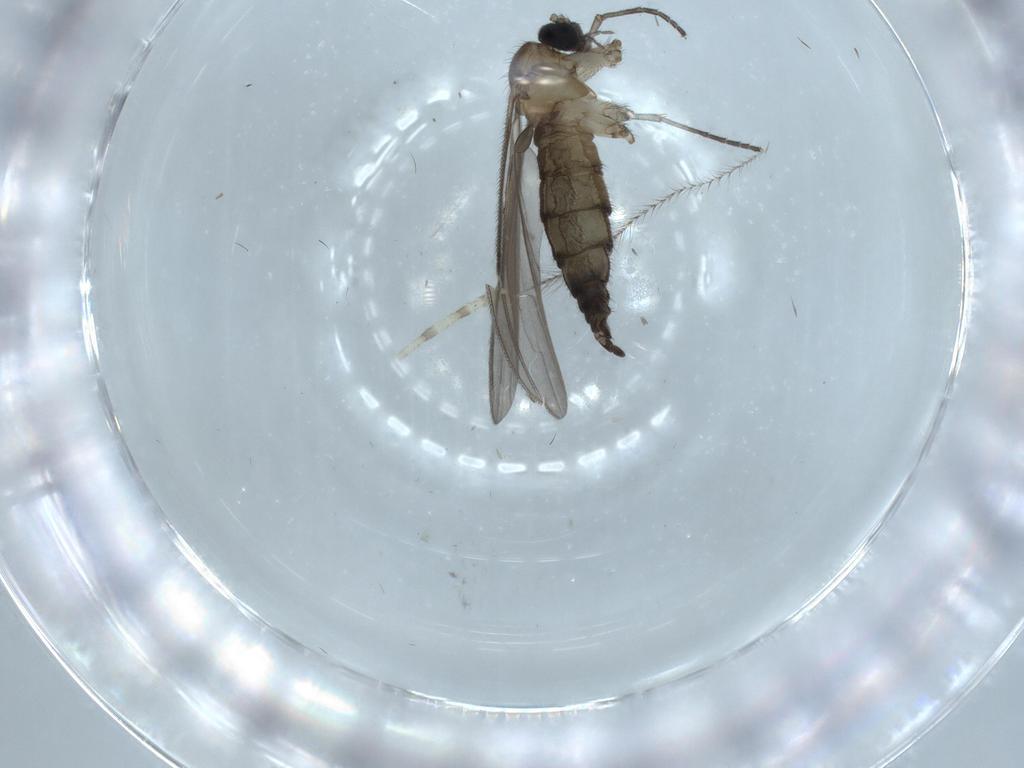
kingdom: Animalia
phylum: Arthropoda
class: Insecta
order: Diptera
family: Sciaridae
